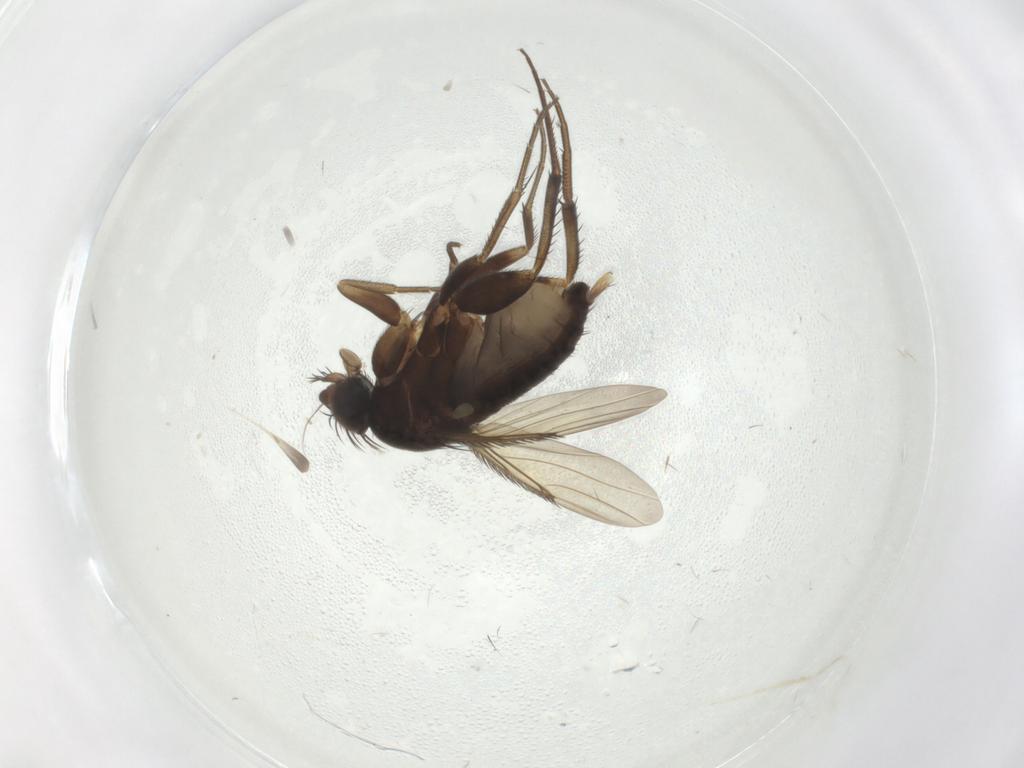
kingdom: Animalia
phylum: Arthropoda
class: Insecta
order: Diptera
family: Phoridae
